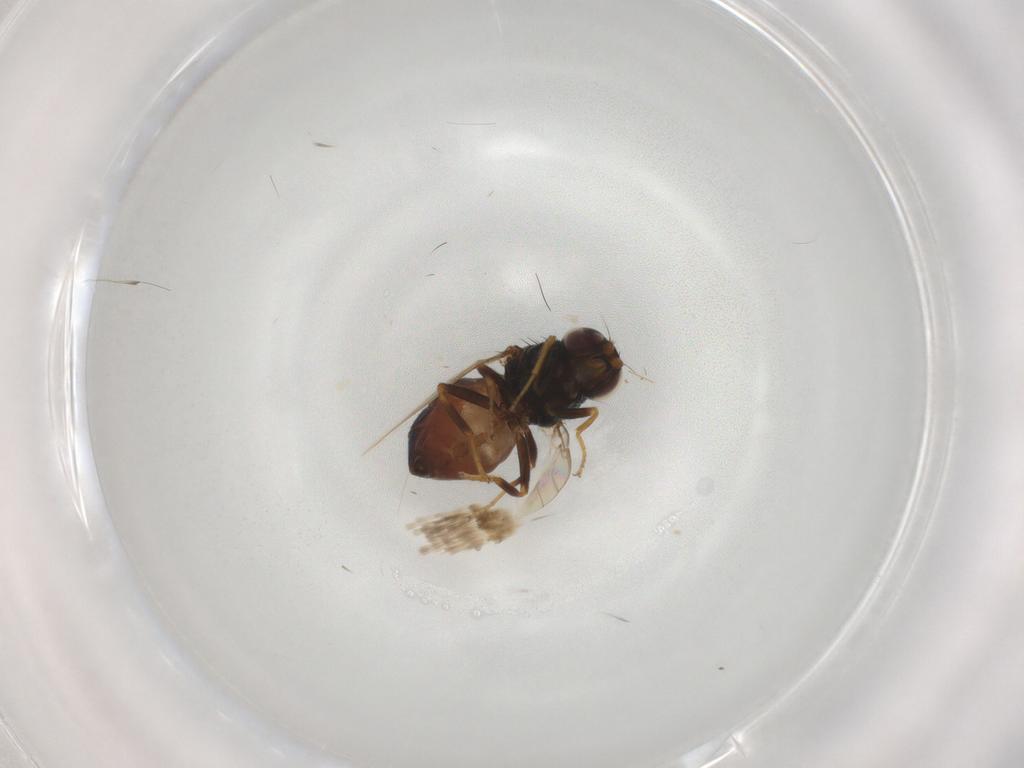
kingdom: Animalia
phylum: Arthropoda
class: Insecta
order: Diptera
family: Chloropidae
